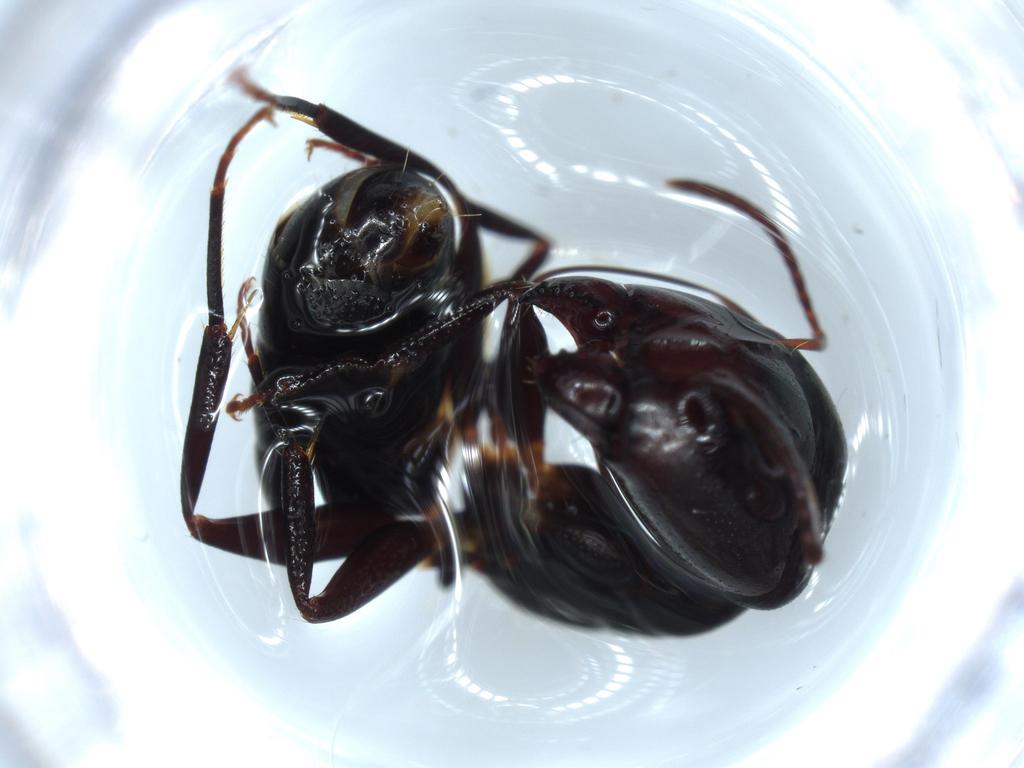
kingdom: Animalia
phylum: Arthropoda
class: Insecta
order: Hymenoptera
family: Formicidae
